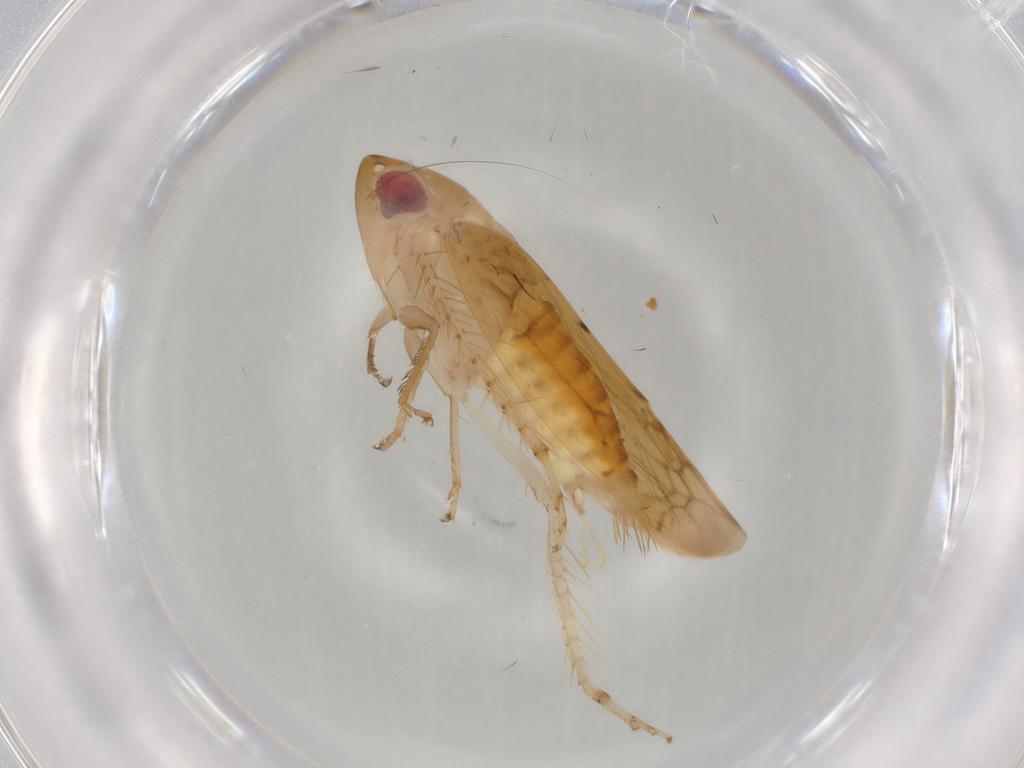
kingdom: Animalia
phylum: Arthropoda
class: Insecta
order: Hemiptera
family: Cicadellidae
